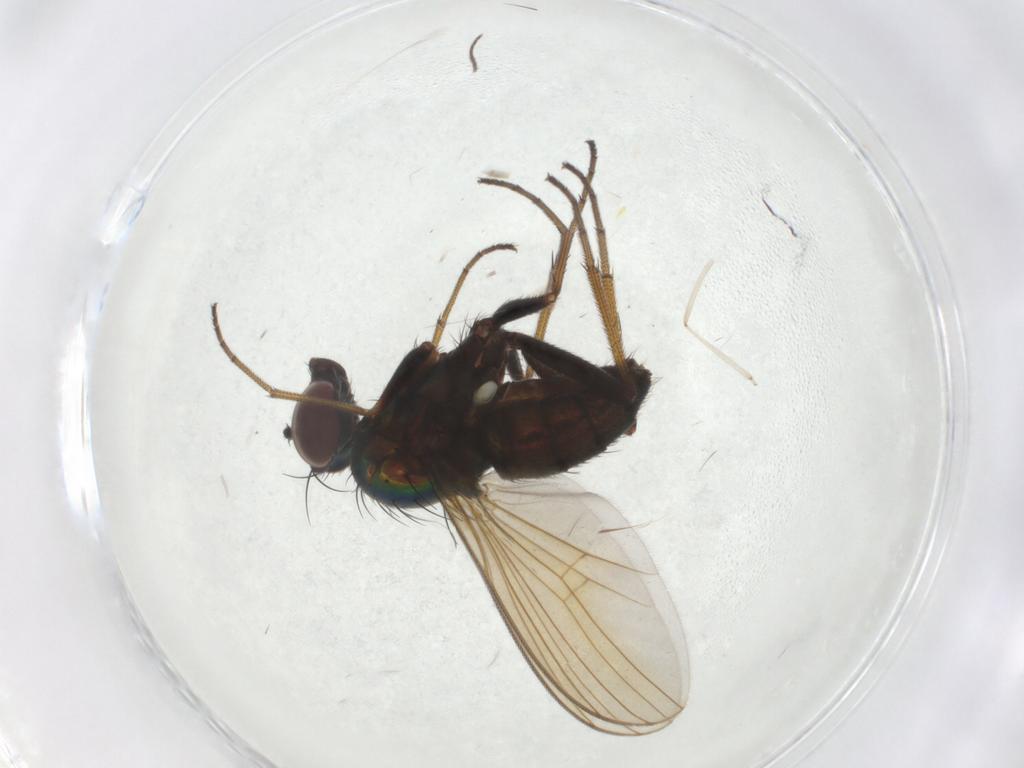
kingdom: Animalia
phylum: Arthropoda
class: Insecta
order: Diptera
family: Dolichopodidae
